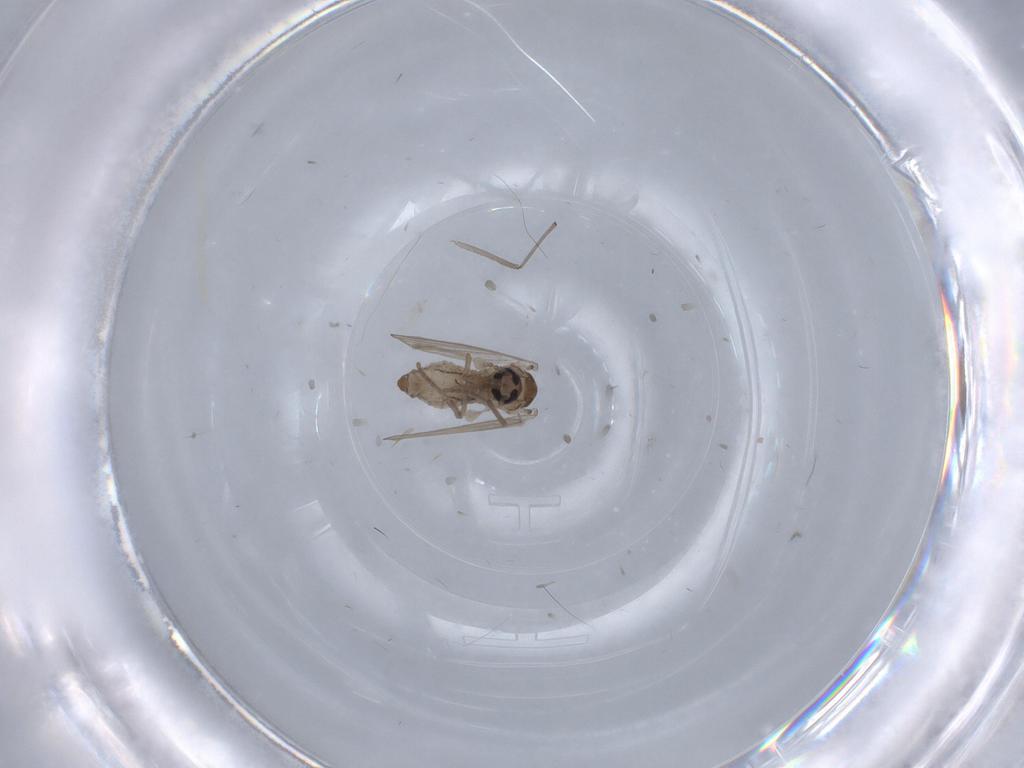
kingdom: Animalia
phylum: Arthropoda
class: Insecta
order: Diptera
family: Psychodidae
